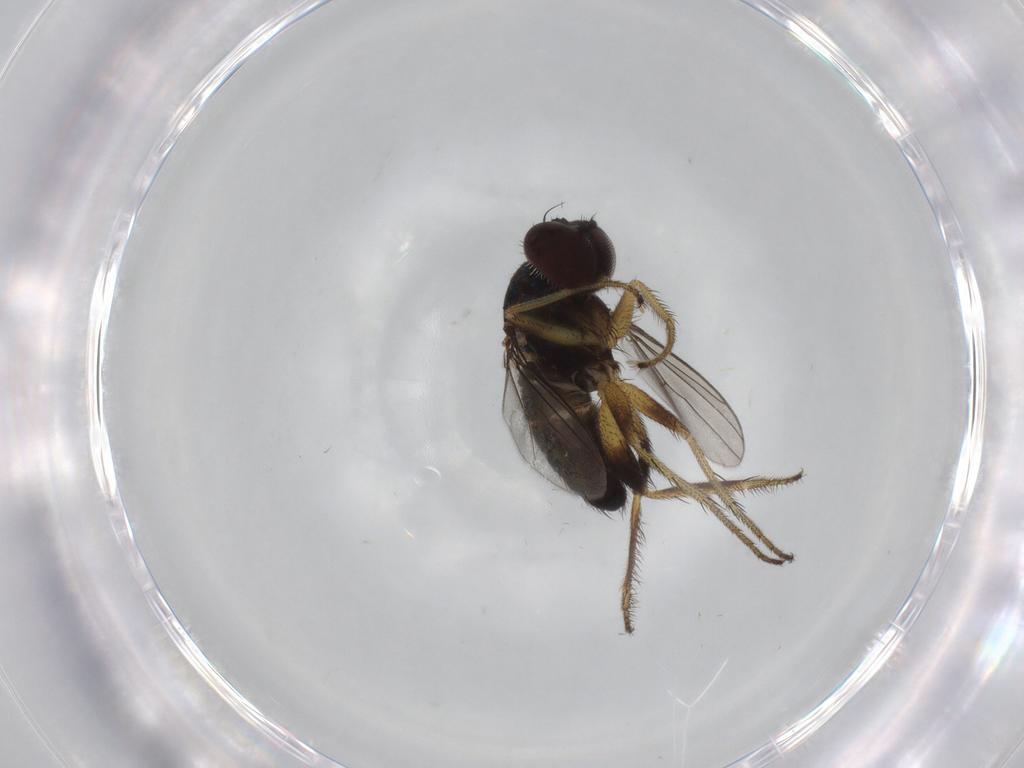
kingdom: Animalia
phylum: Arthropoda
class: Insecta
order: Diptera
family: Dolichopodidae
